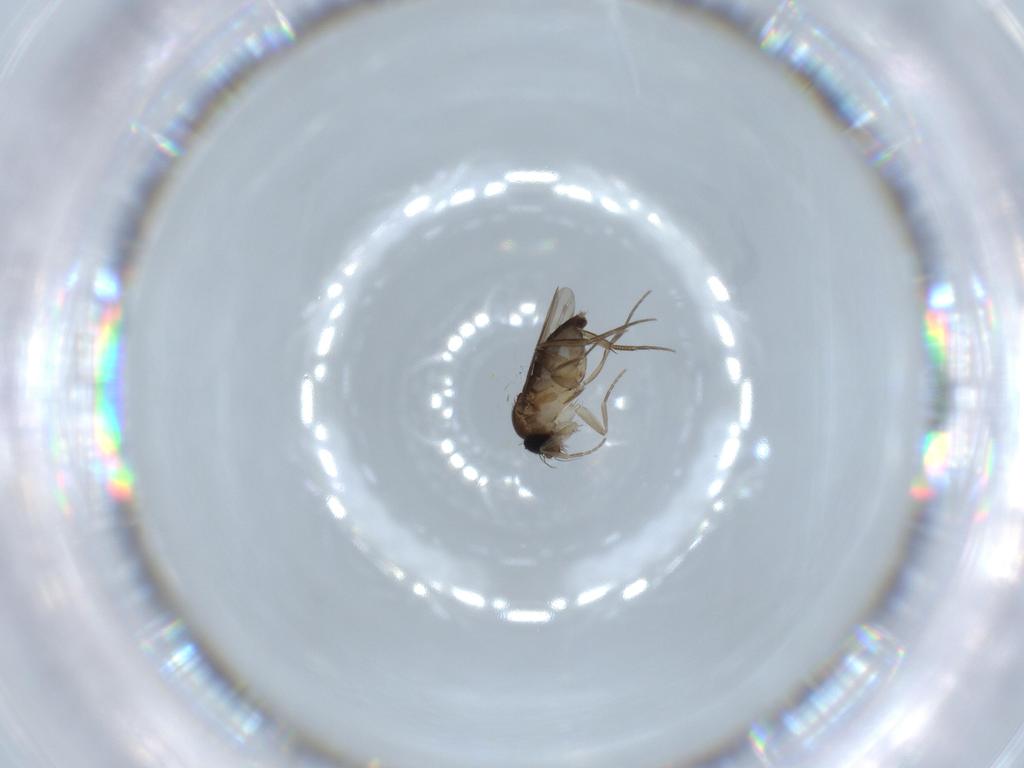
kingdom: Animalia
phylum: Arthropoda
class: Insecta
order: Diptera
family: Phoridae
